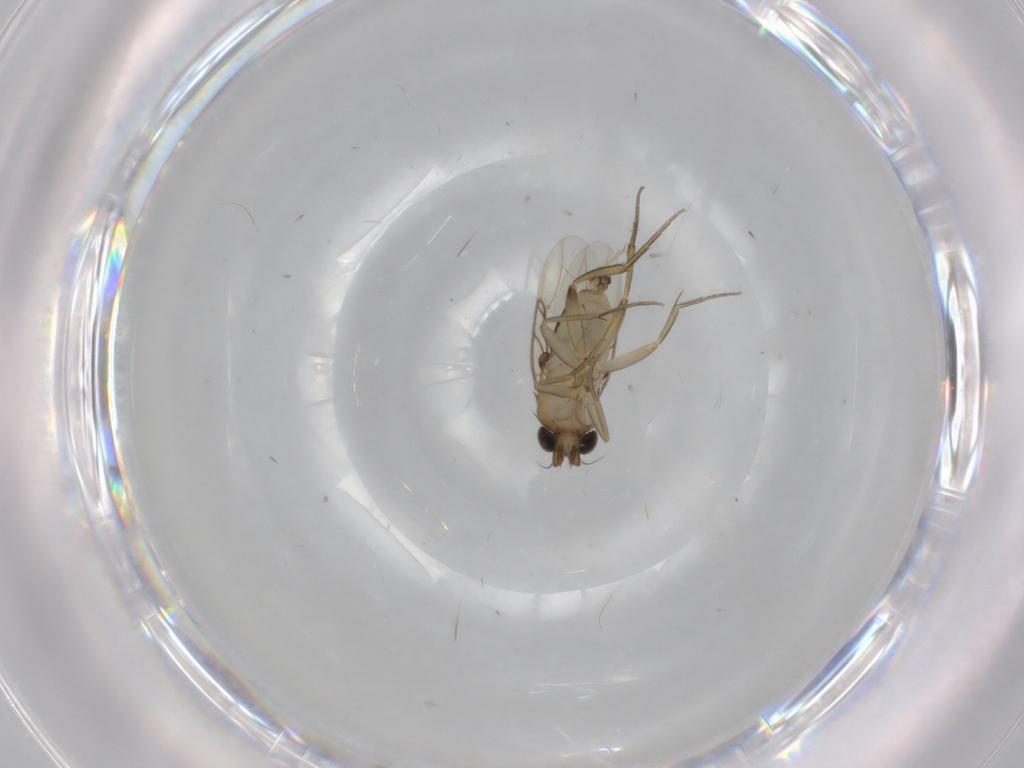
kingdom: Animalia
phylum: Arthropoda
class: Insecta
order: Diptera
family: Phoridae
